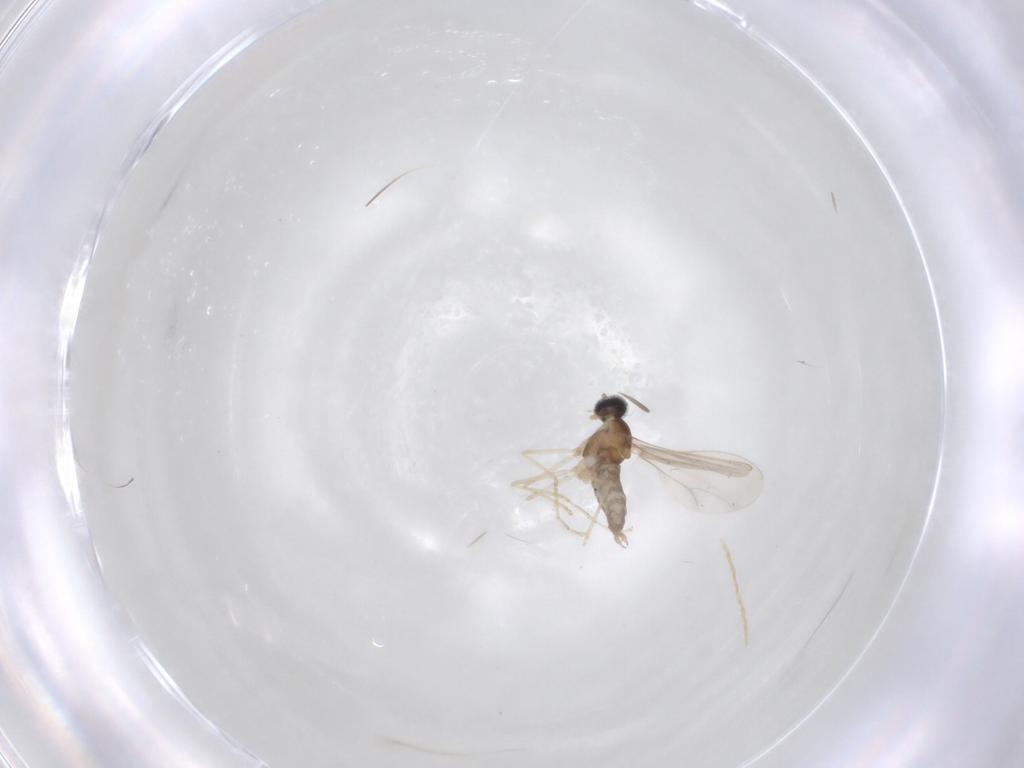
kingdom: Animalia
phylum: Arthropoda
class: Insecta
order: Diptera
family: Cecidomyiidae
